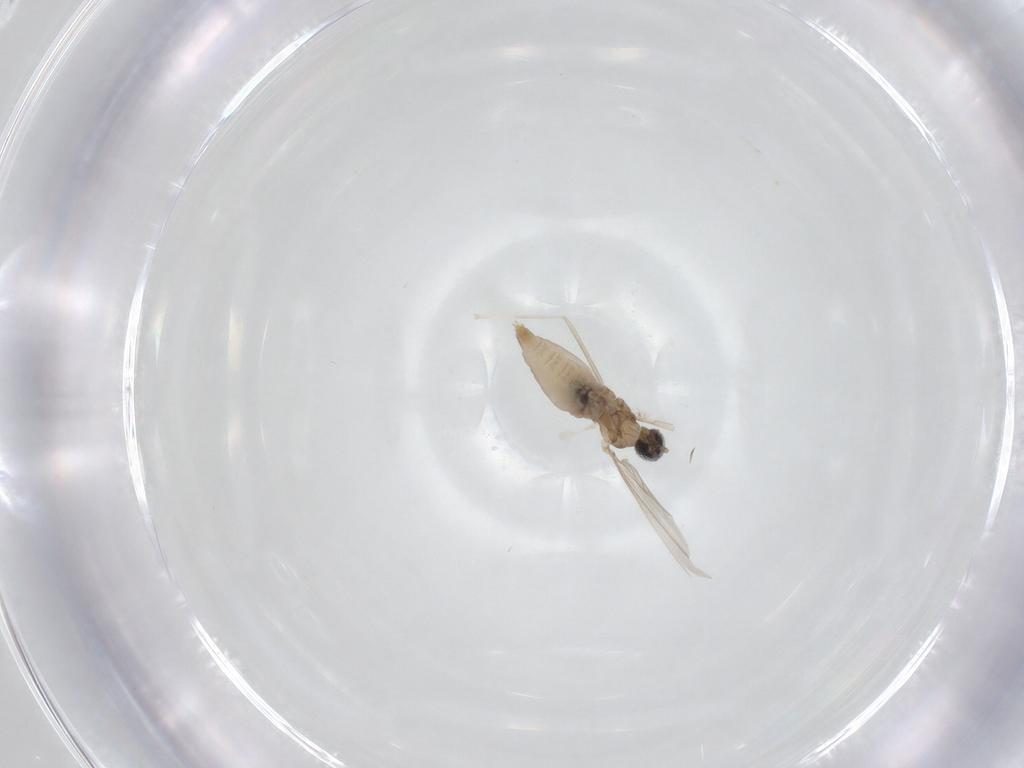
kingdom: Animalia
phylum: Arthropoda
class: Insecta
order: Diptera
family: Cecidomyiidae
